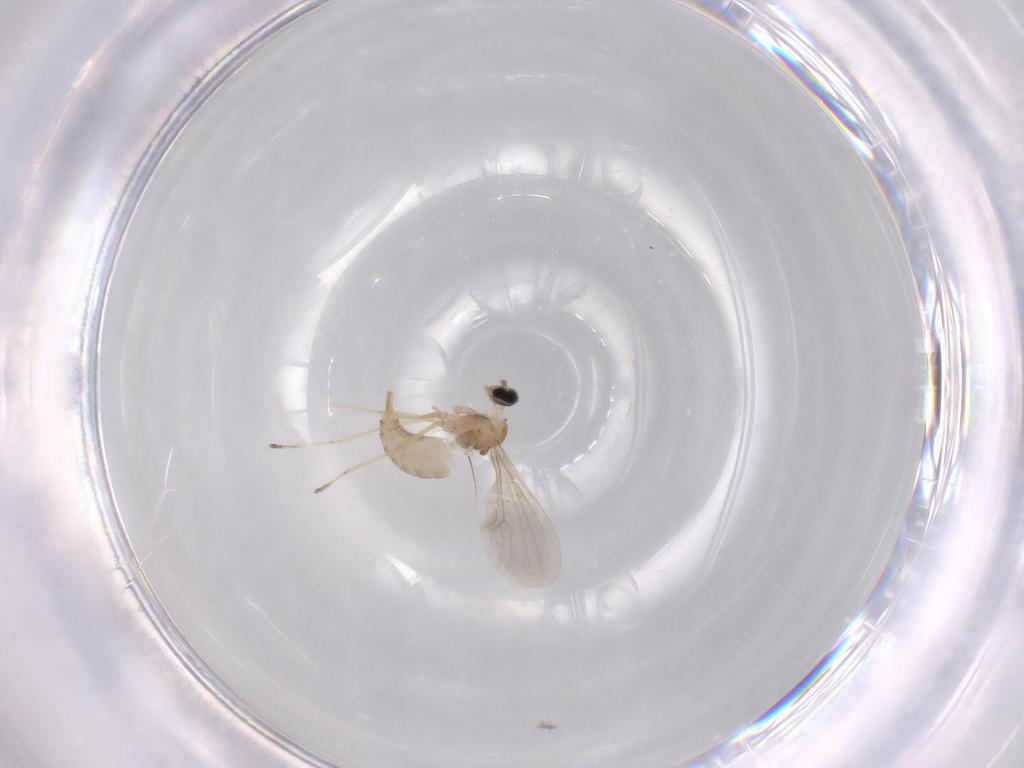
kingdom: Animalia
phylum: Arthropoda
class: Insecta
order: Diptera
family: Cecidomyiidae
